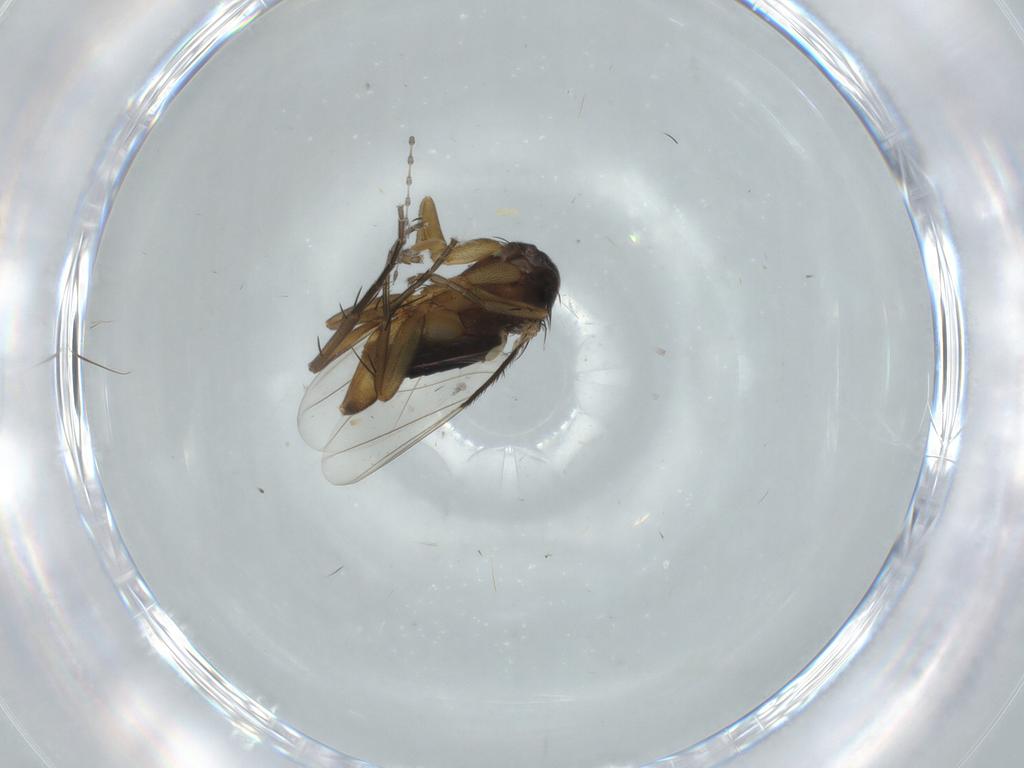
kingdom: Animalia
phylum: Arthropoda
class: Insecta
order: Diptera
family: Phoridae
